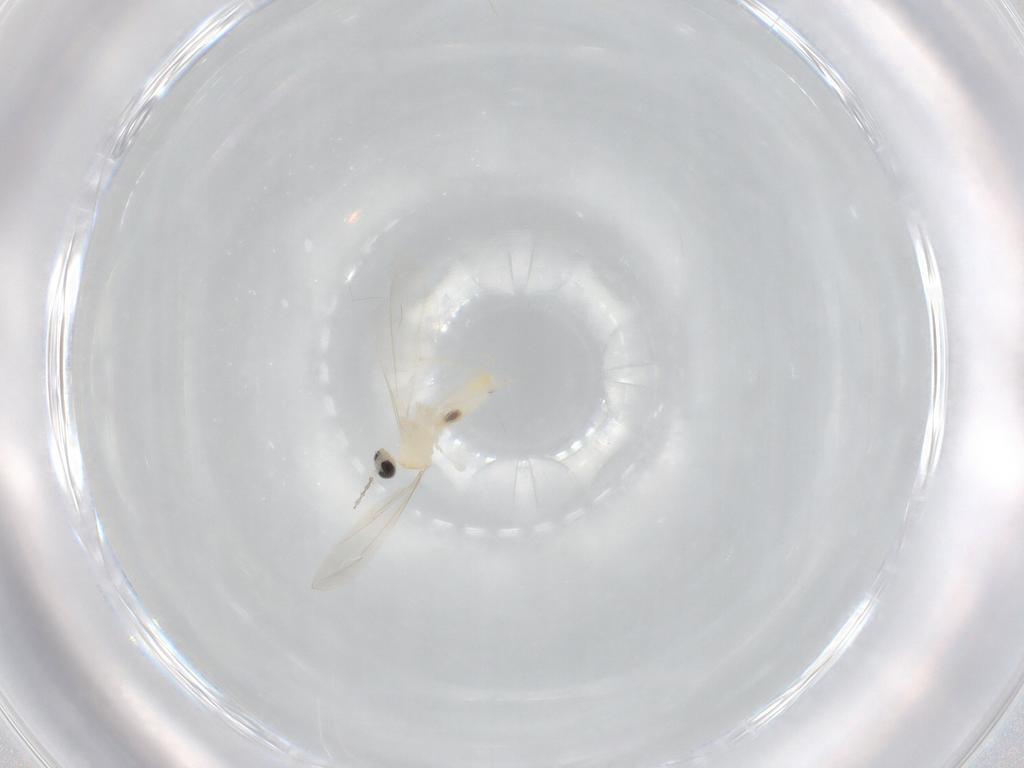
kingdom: Animalia
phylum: Arthropoda
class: Insecta
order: Diptera
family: Cecidomyiidae
